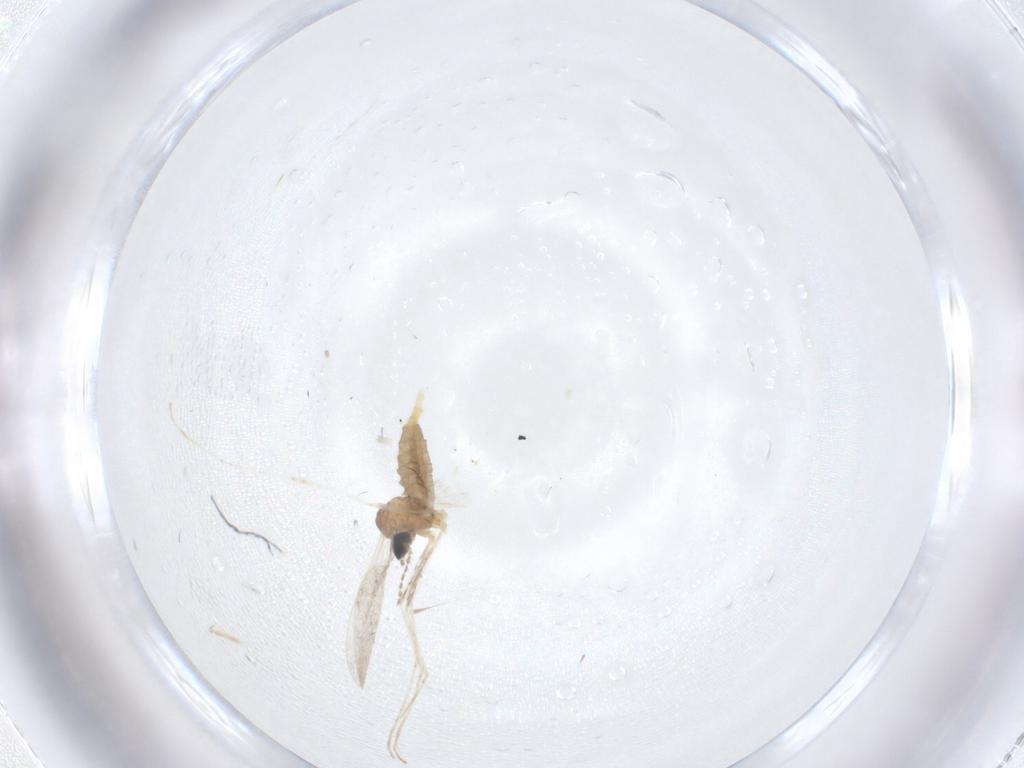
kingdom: Animalia
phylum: Arthropoda
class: Insecta
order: Diptera
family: Cecidomyiidae
